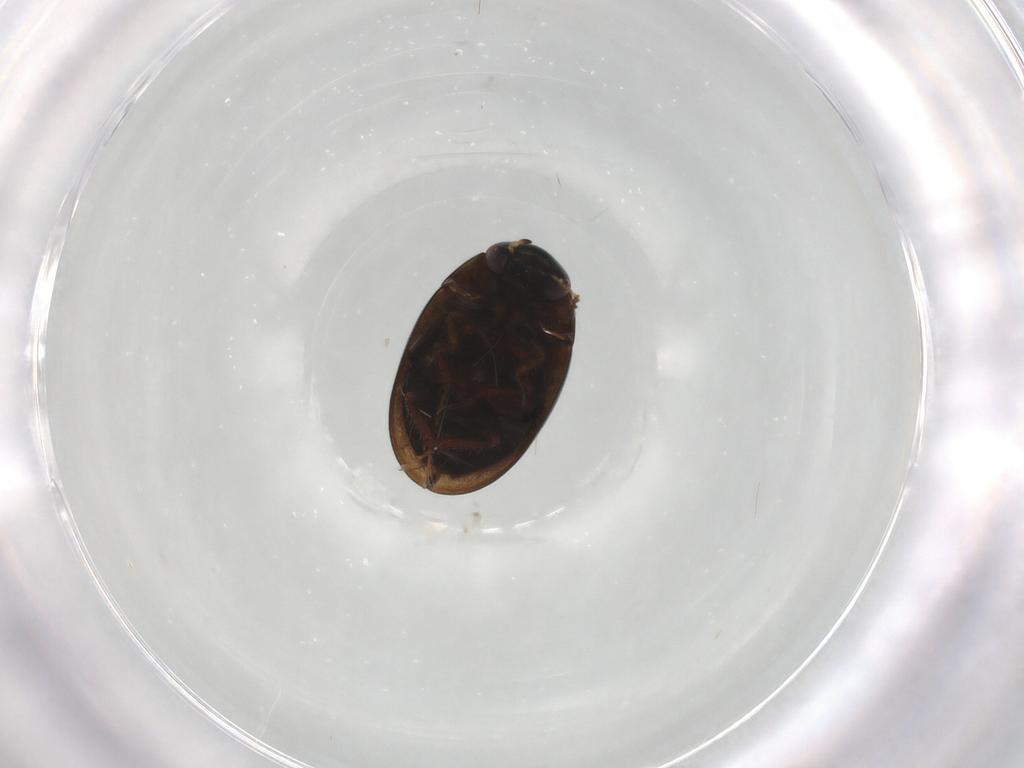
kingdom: Animalia
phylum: Arthropoda
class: Insecta
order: Coleoptera
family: Hydrophilidae
